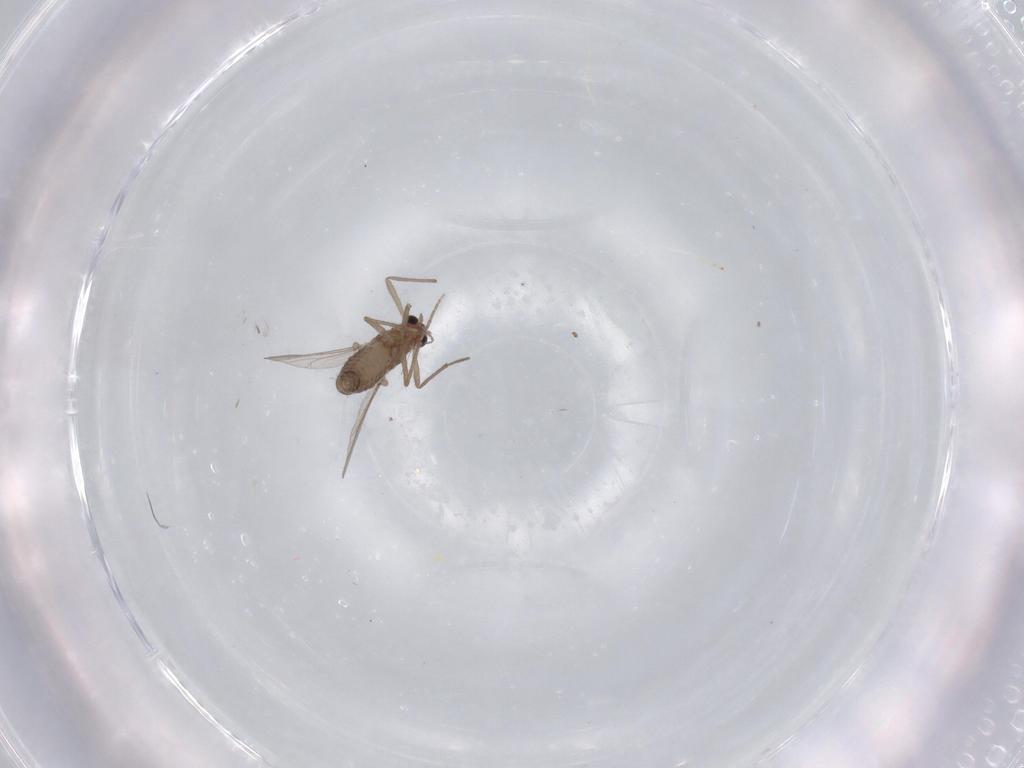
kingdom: Animalia
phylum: Arthropoda
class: Insecta
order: Diptera
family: Chironomidae
